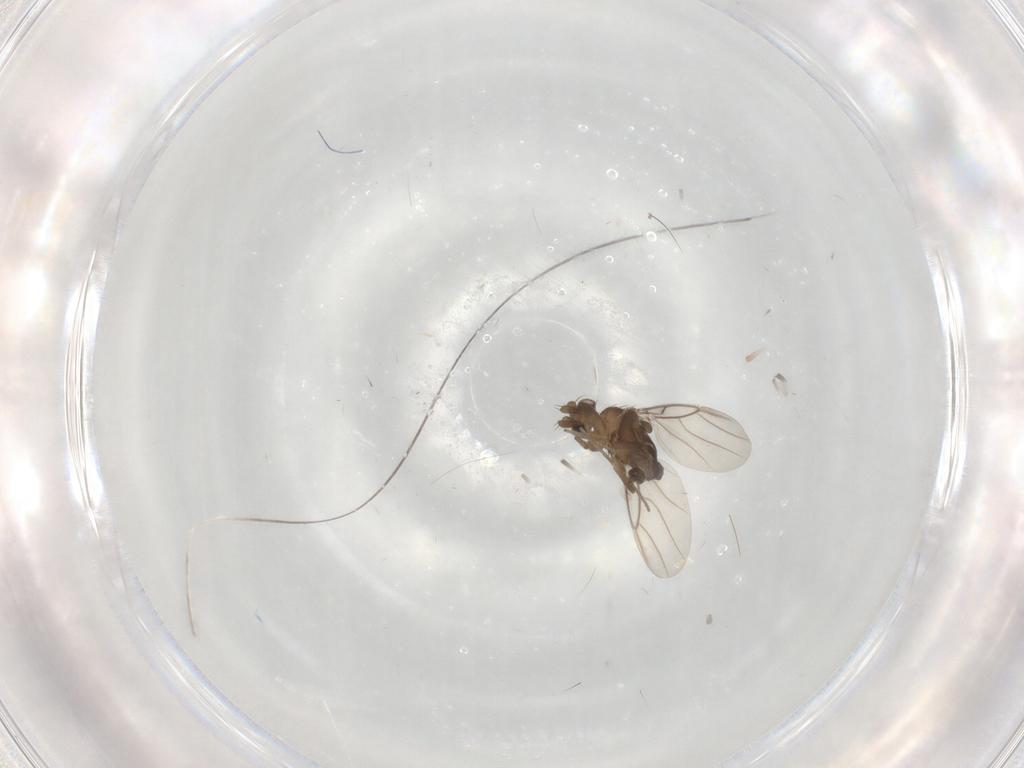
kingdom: Animalia
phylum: Arthropoda
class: Insecta
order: Diptera
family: Phoridae
